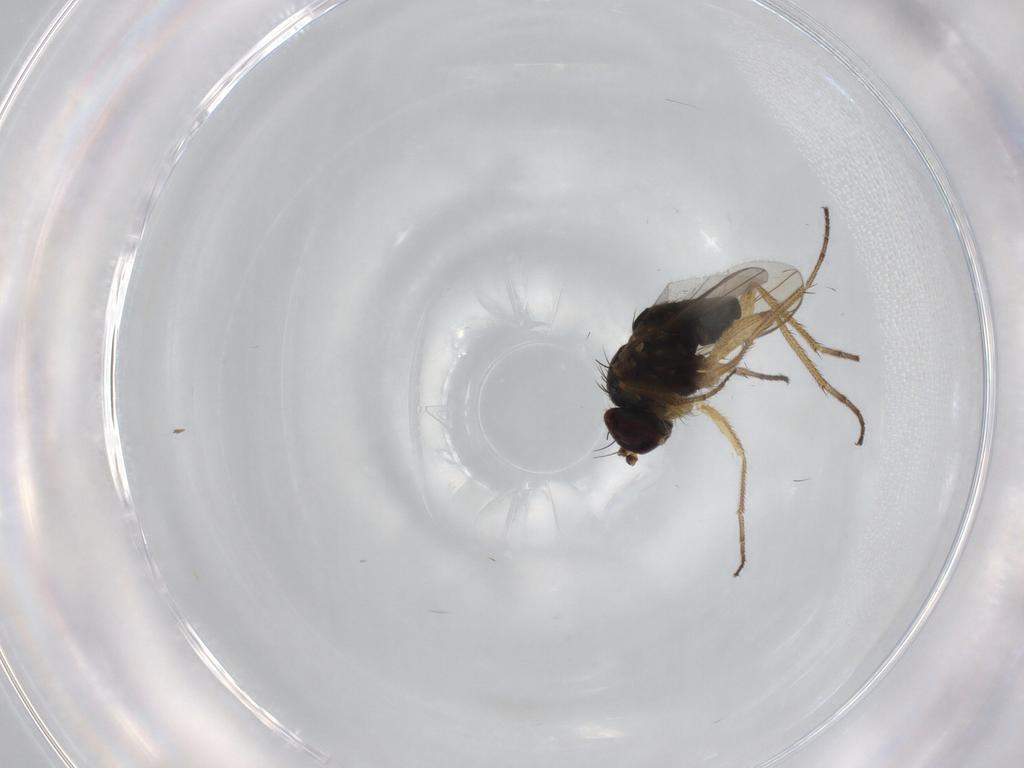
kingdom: Animalia
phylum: Arthropoda
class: Insecta
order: Diptera
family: Dolichopodidae
